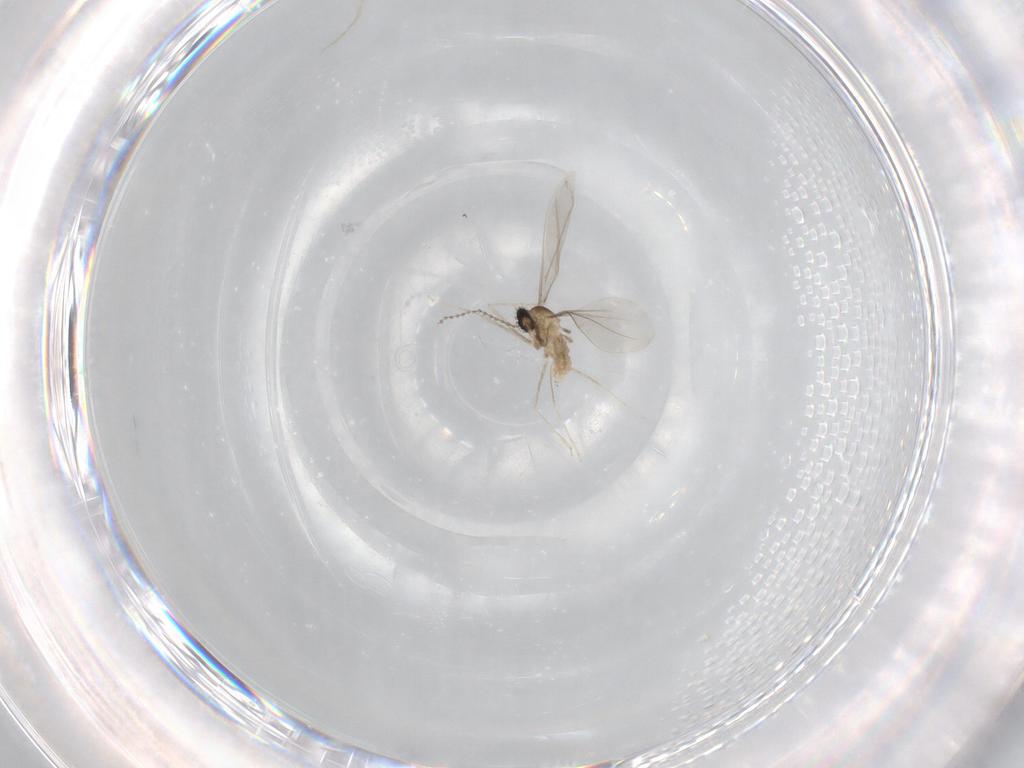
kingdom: Animalia
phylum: Arthropoda
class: Insecta
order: Diptera
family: Cecidomyiidae
